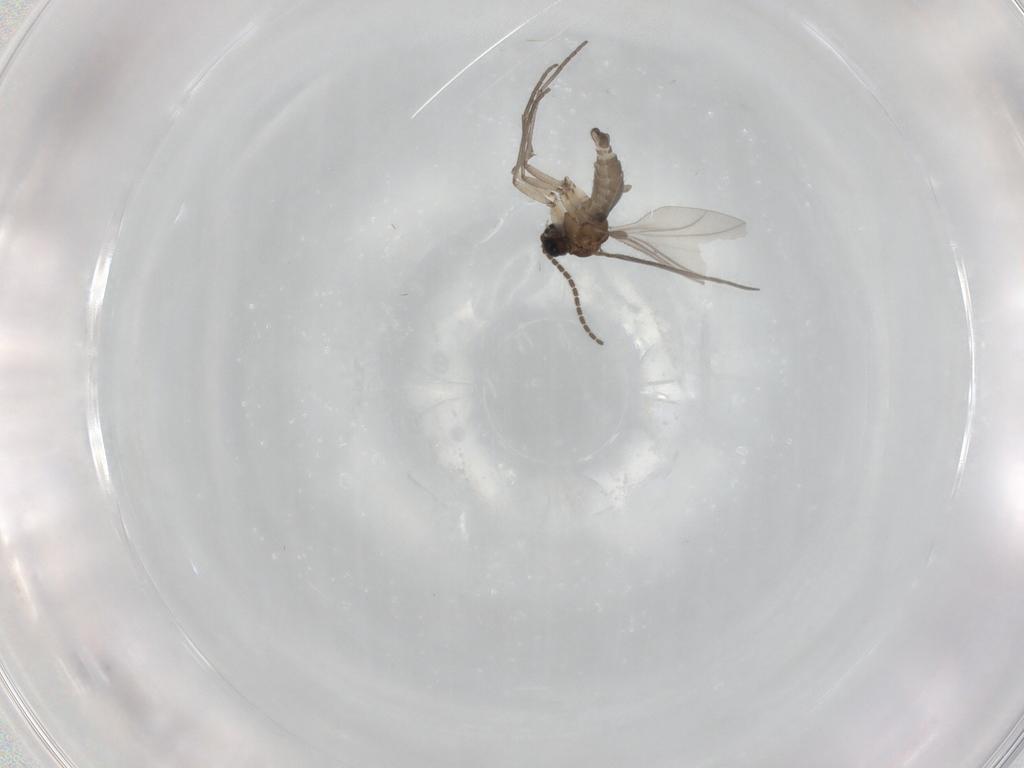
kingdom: Animalia
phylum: Arthropoda
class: Insecta
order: Diptera
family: Sciaridae
